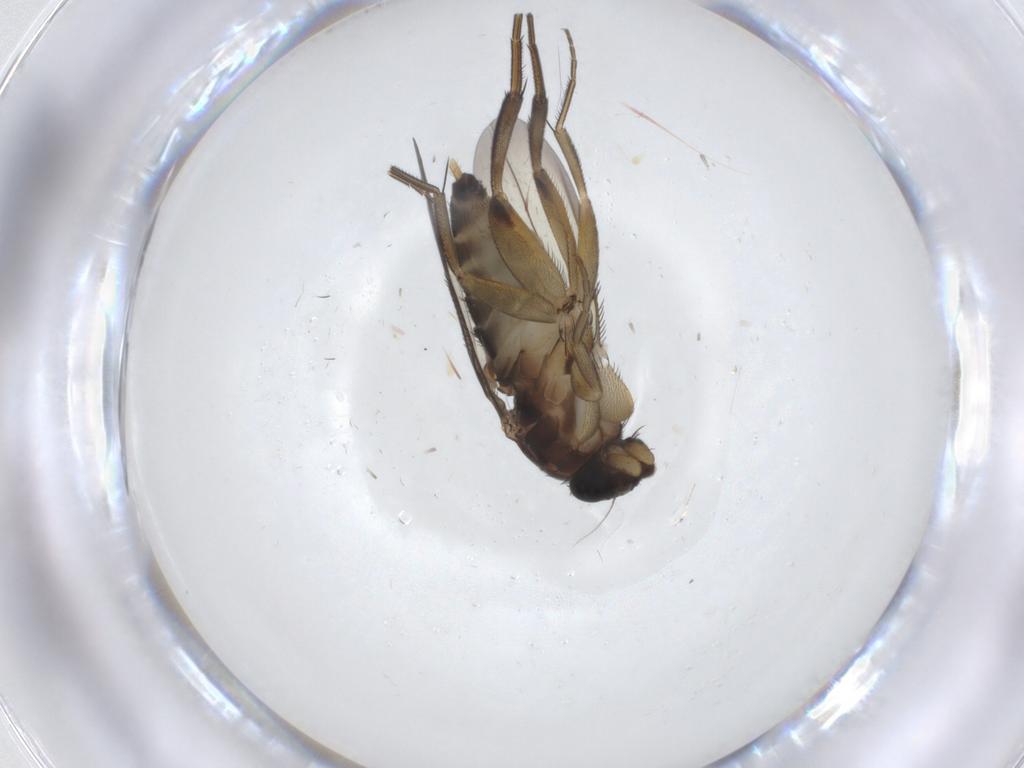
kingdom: Animalia
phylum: Arthropoda
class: Insecta
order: Diptera
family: Phoridae
